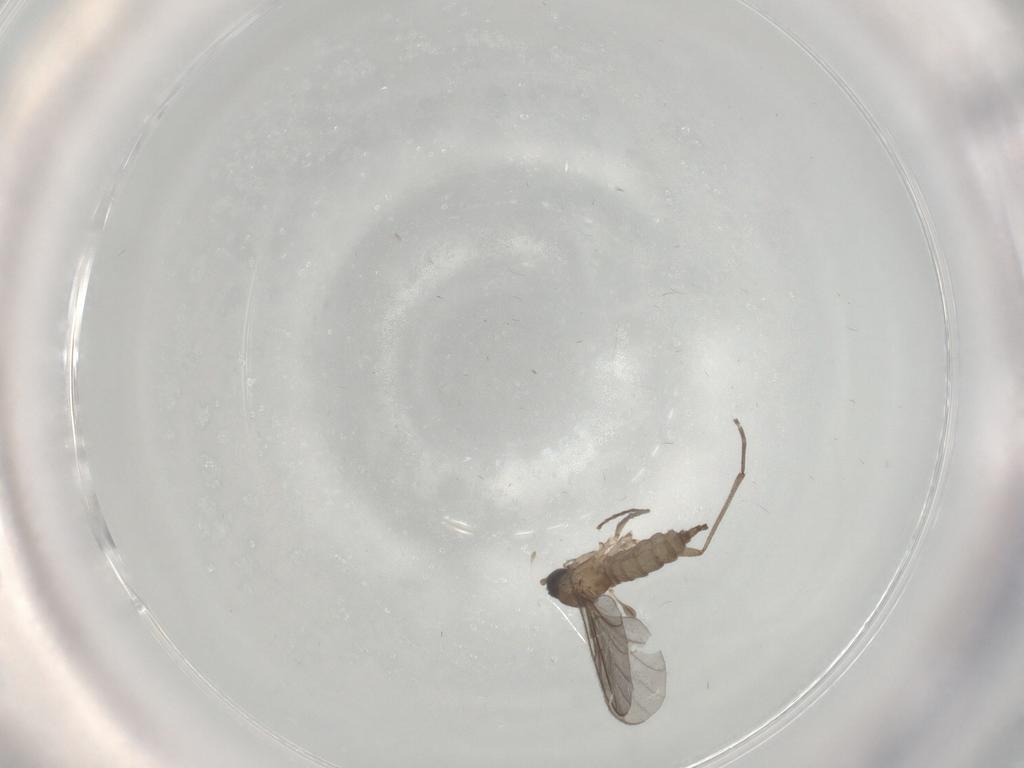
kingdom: Animalia
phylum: Arthropoda
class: Insecta
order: Diptera
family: Sciaridae
